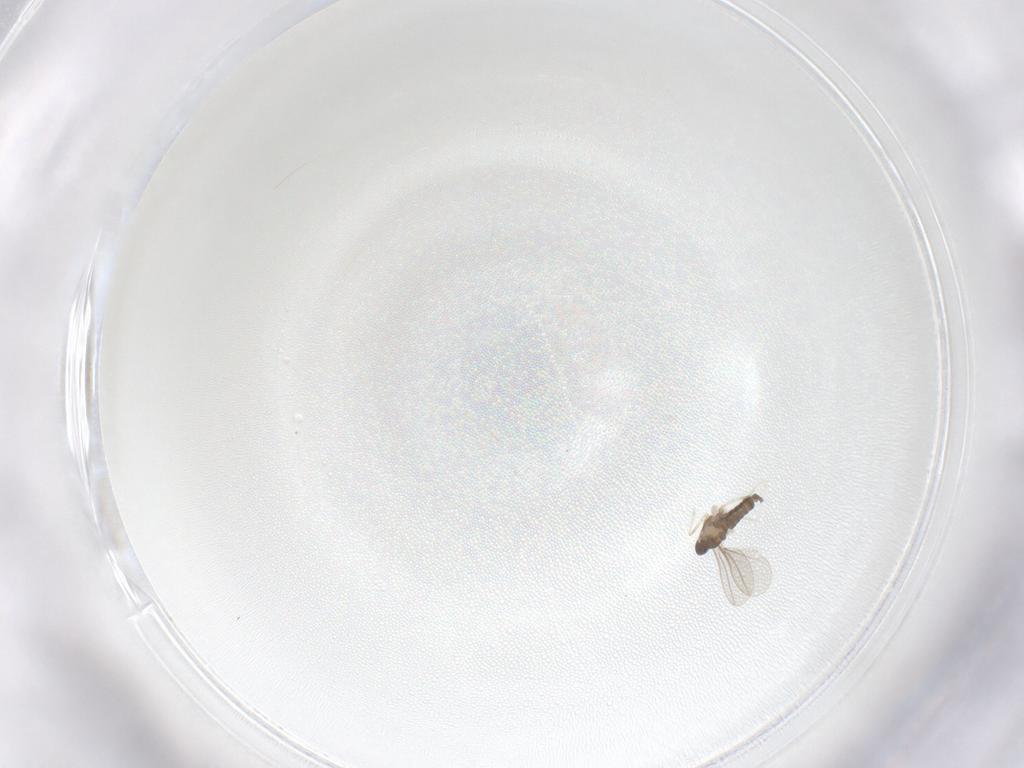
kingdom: Animalia
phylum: Arthropoda
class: Insecta
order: Diptera
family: Cecidomyiidae
